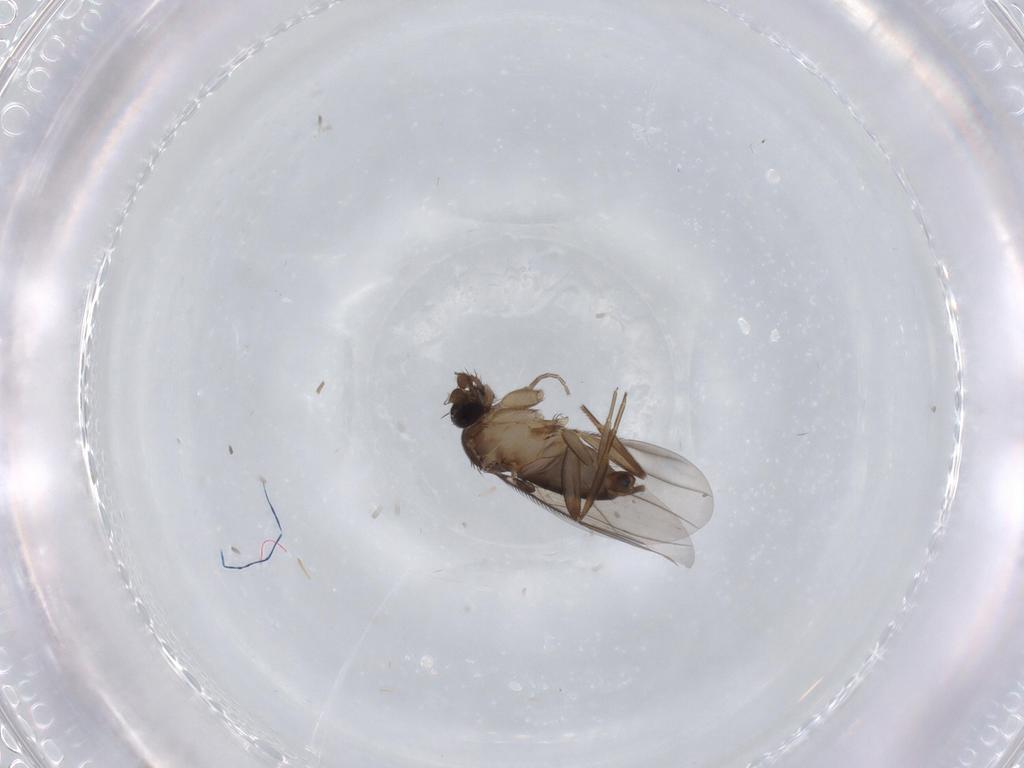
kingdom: Animalia
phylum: Arthropoda
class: Insecta
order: Diptera
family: Phoridae
